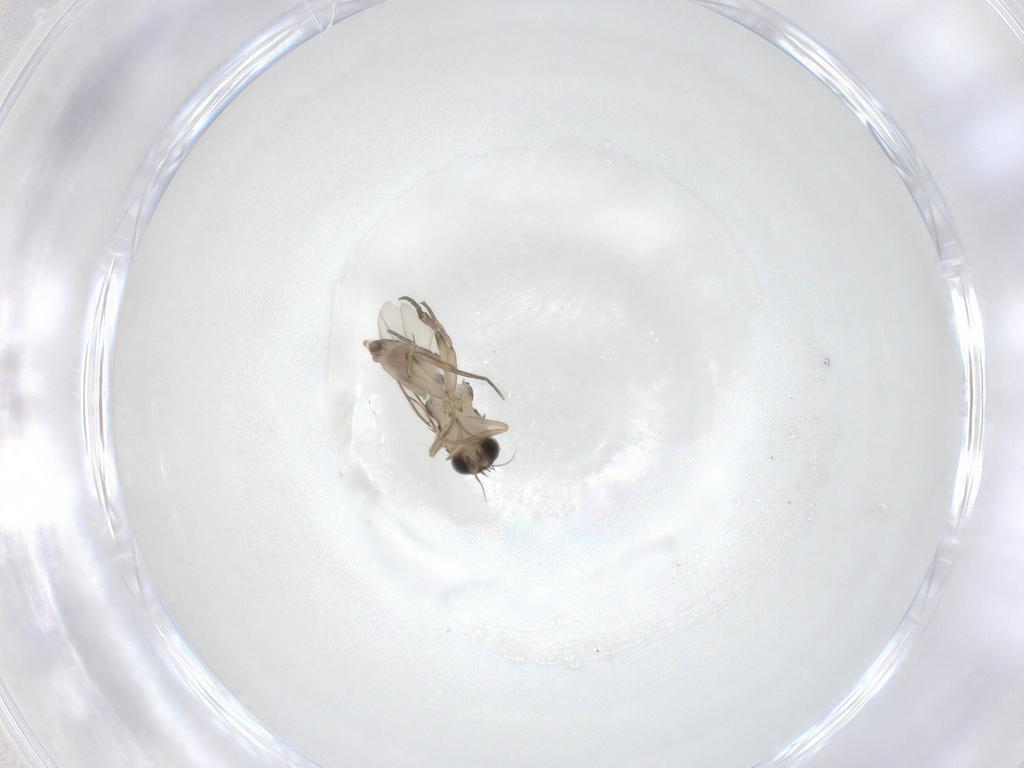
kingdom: Animalia
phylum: Arthropoda
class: Insecta
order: Diptera
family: Phoridae
